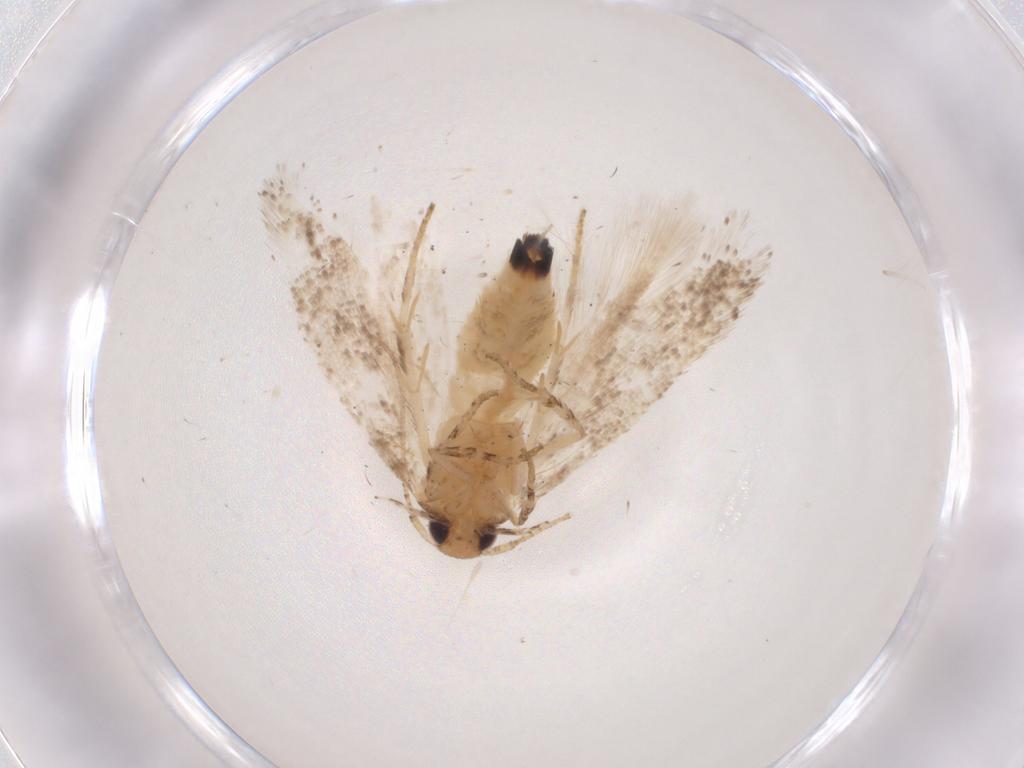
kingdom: Animalia
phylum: Arthropoda
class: Insecta
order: Lepidoptera
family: Gelechiidae
